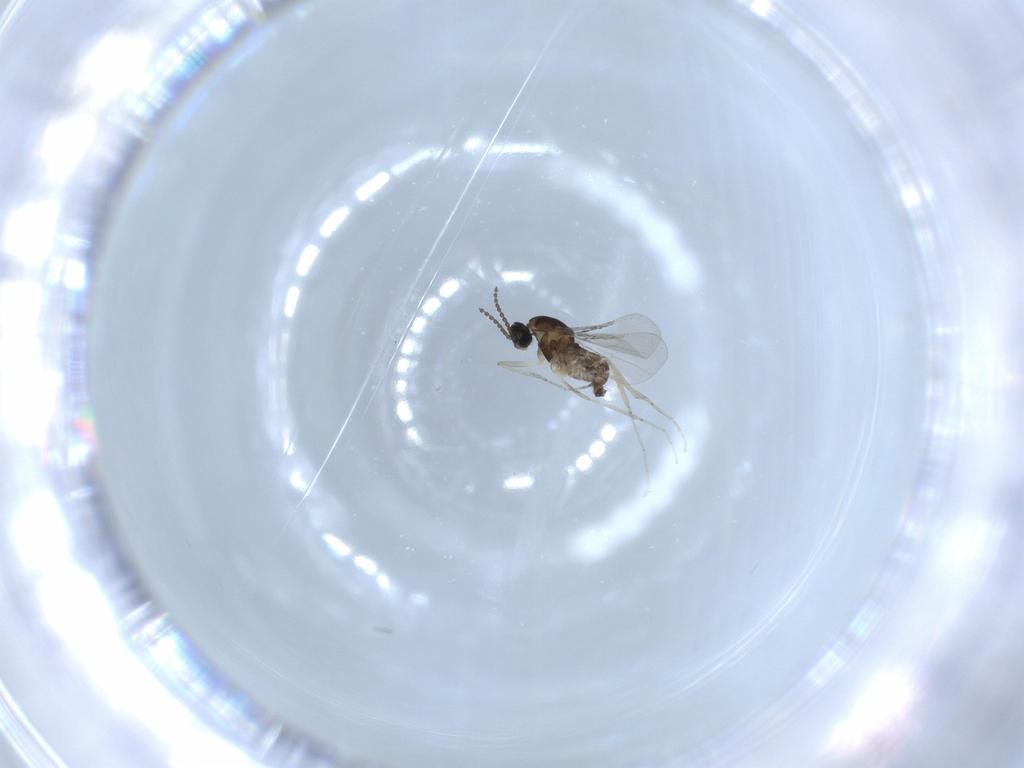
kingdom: Animalia
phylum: Arthropoda
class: Insecta
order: Diptera
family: Cecidomyiidae
